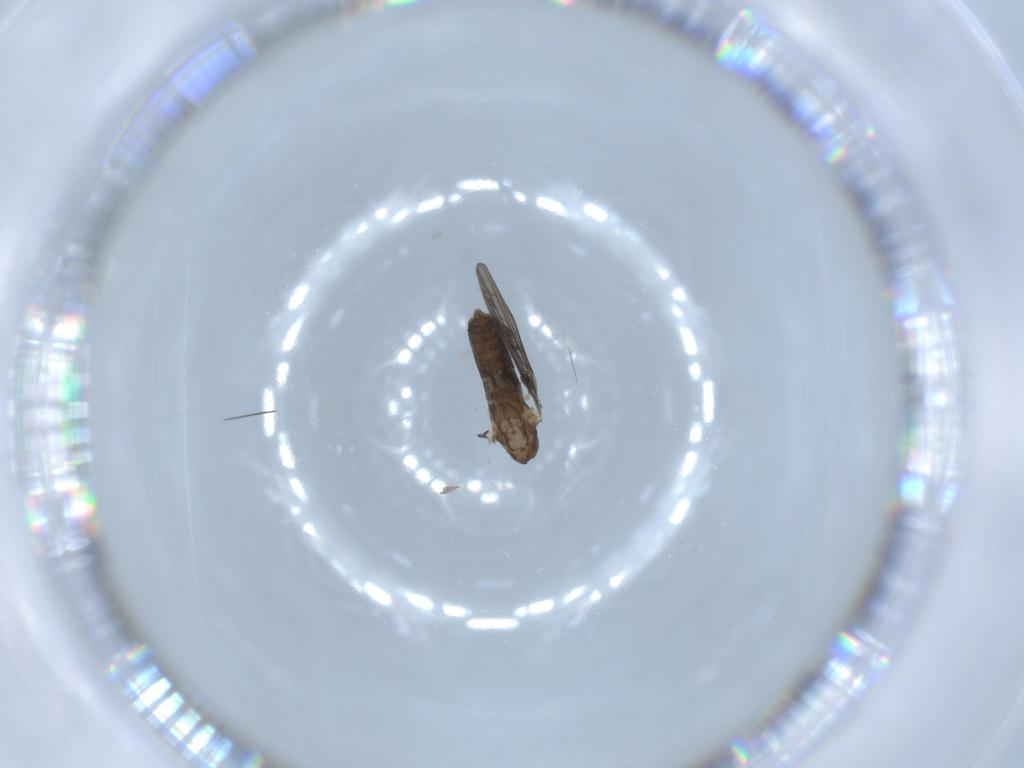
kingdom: Animalia
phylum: Arthropoda
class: Insecta
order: Diptera
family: Psychodidae
